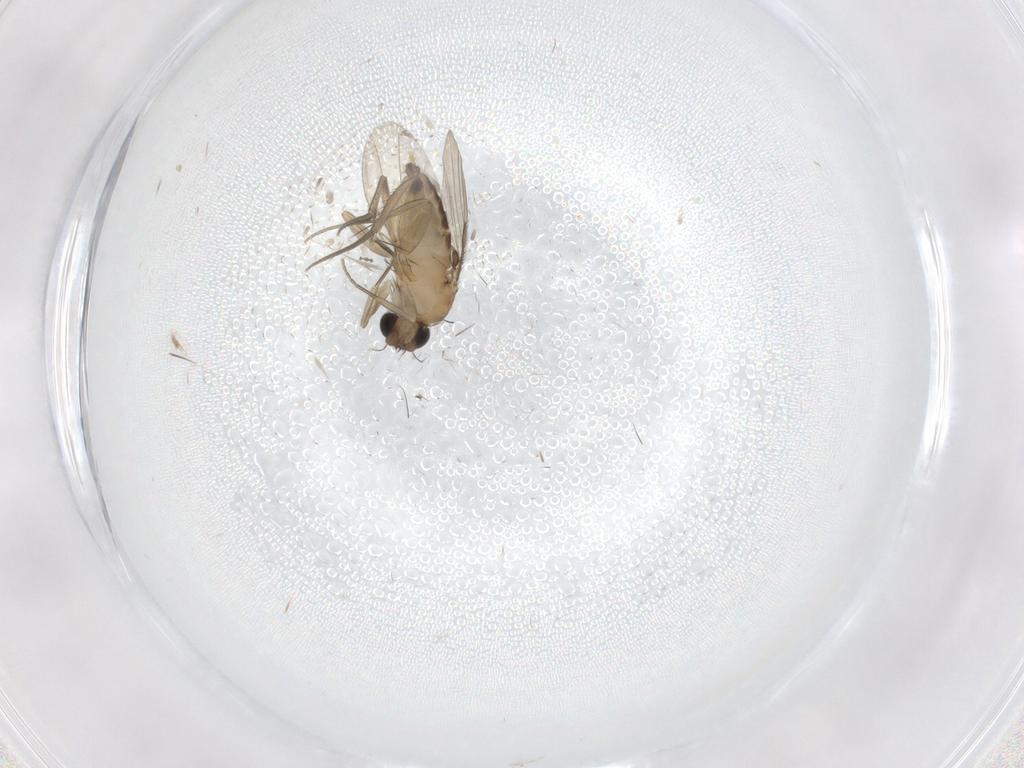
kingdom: Animalia
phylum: Arthropoda
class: Insecta
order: Diptera
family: Phoridae
